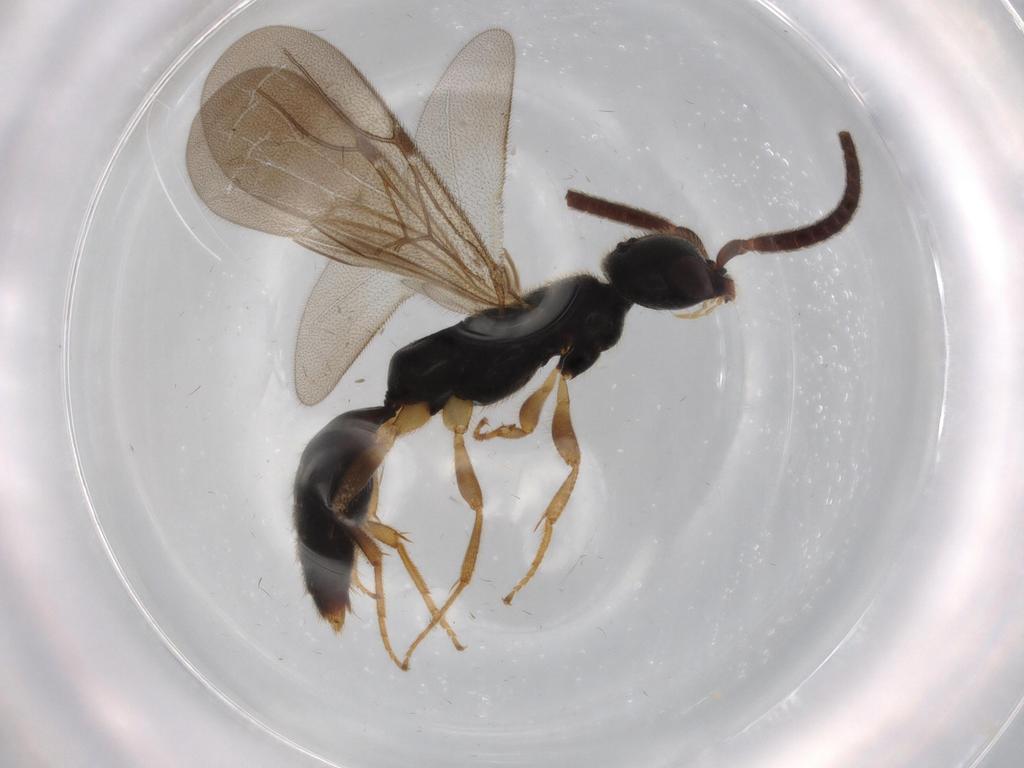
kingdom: Animalia
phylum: Arthropoda
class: Insecta
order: Hymenoptera
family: Bethylidae
